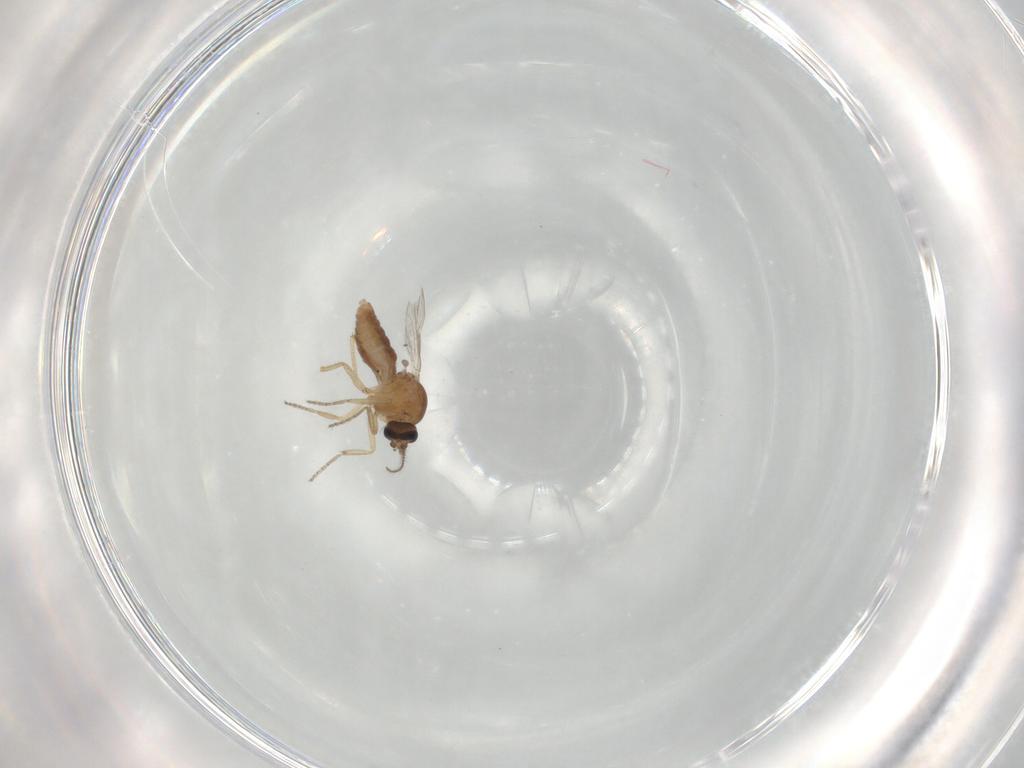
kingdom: Animalia
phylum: Arthropoda
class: Insecta
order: Diptera
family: Ceratopogonidae
